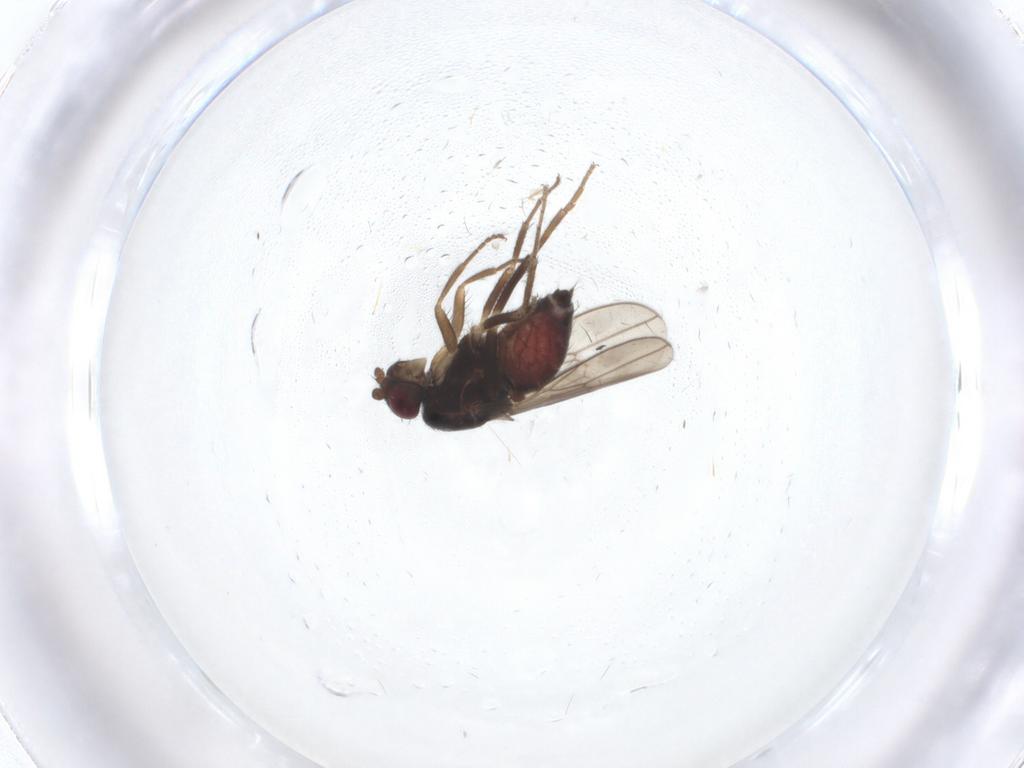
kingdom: Animalia
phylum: Arthropoda
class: Insecta
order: Diptera
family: Sphaeroceridae
